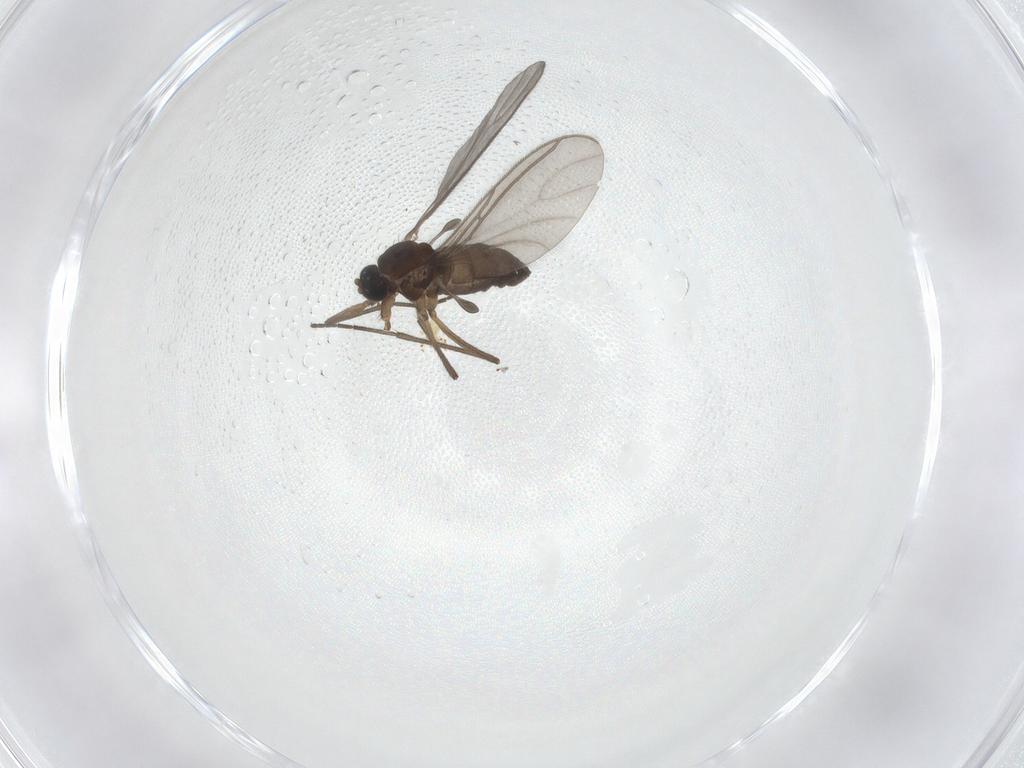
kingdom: Animalia
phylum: Arthropoda
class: Insecta
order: Diptera
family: Sciaridae
